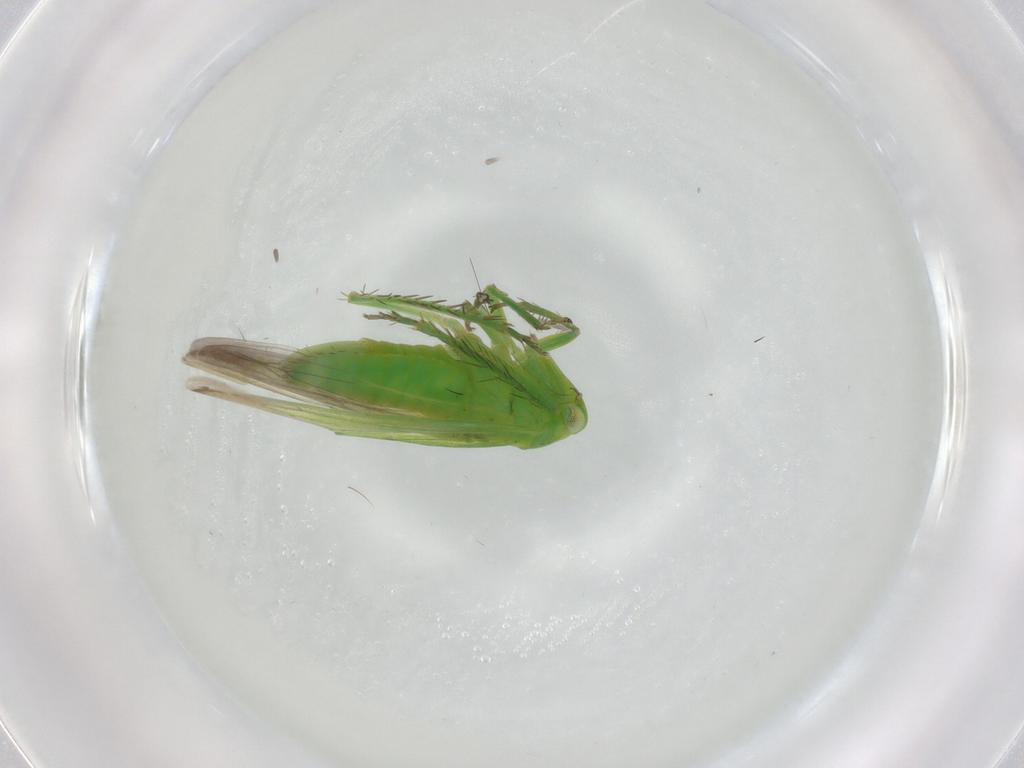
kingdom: Animalia
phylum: Arthropoda
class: Insecta
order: Hemiptera
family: Cicadellidae
